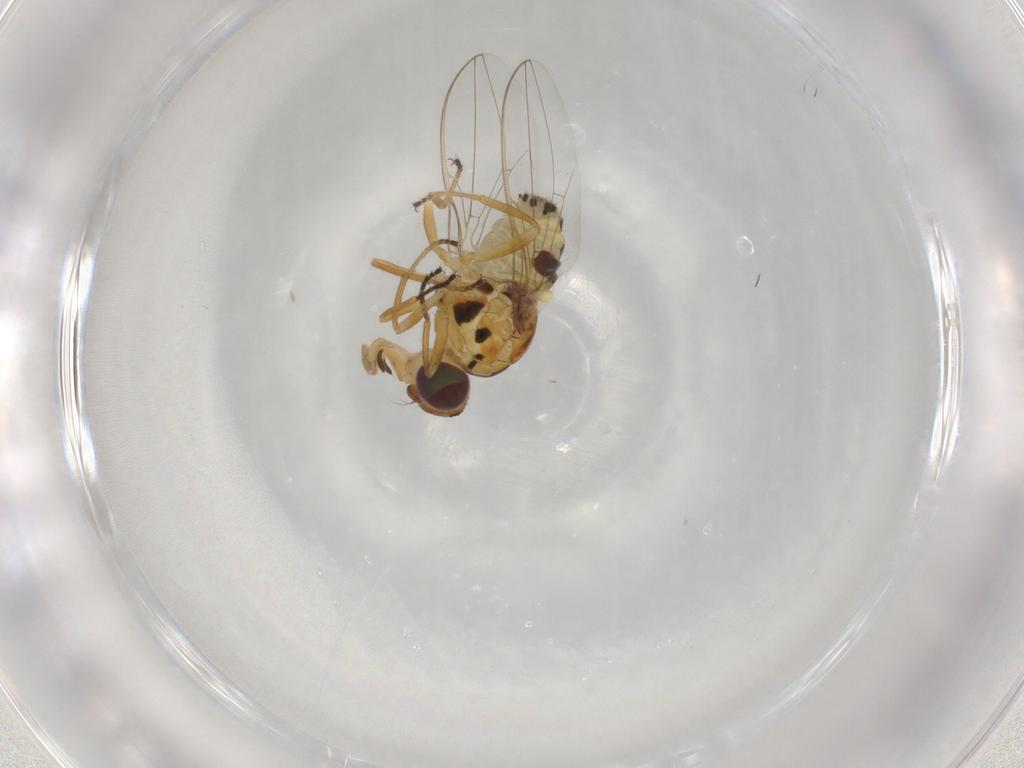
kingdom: Animalia
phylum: Arthropoda
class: Insecta
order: Diptera
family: Asteiidae
